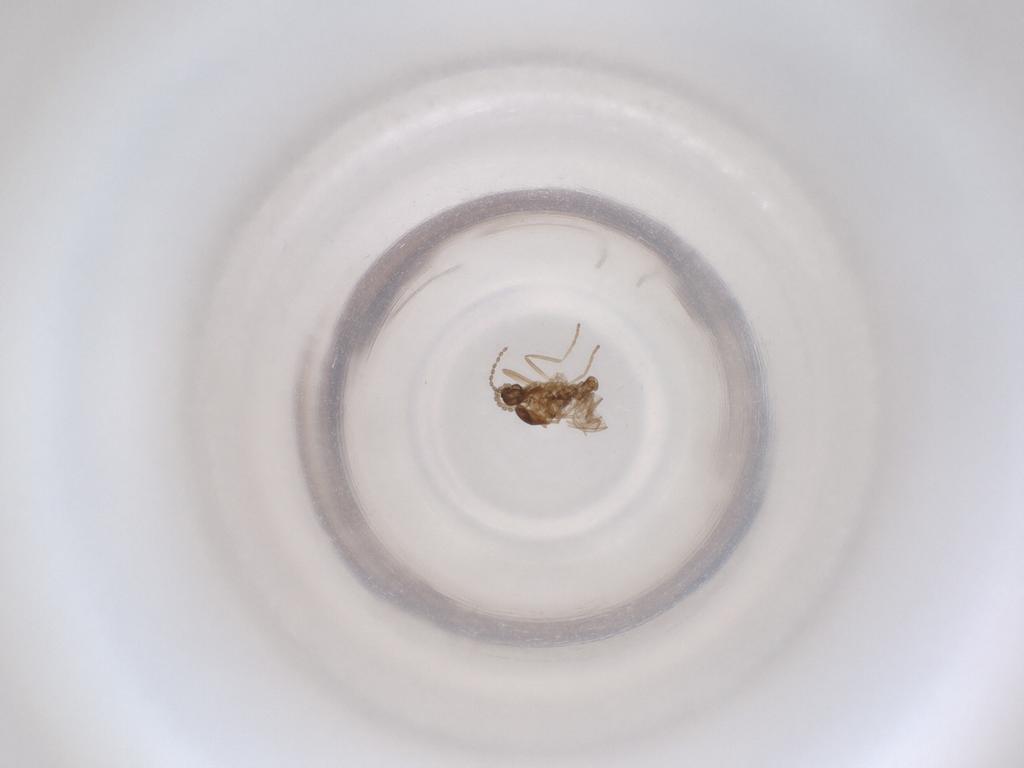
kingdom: Animalia
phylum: Arthropoda
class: Insecta
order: Diptera
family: Cecidomyiidae
